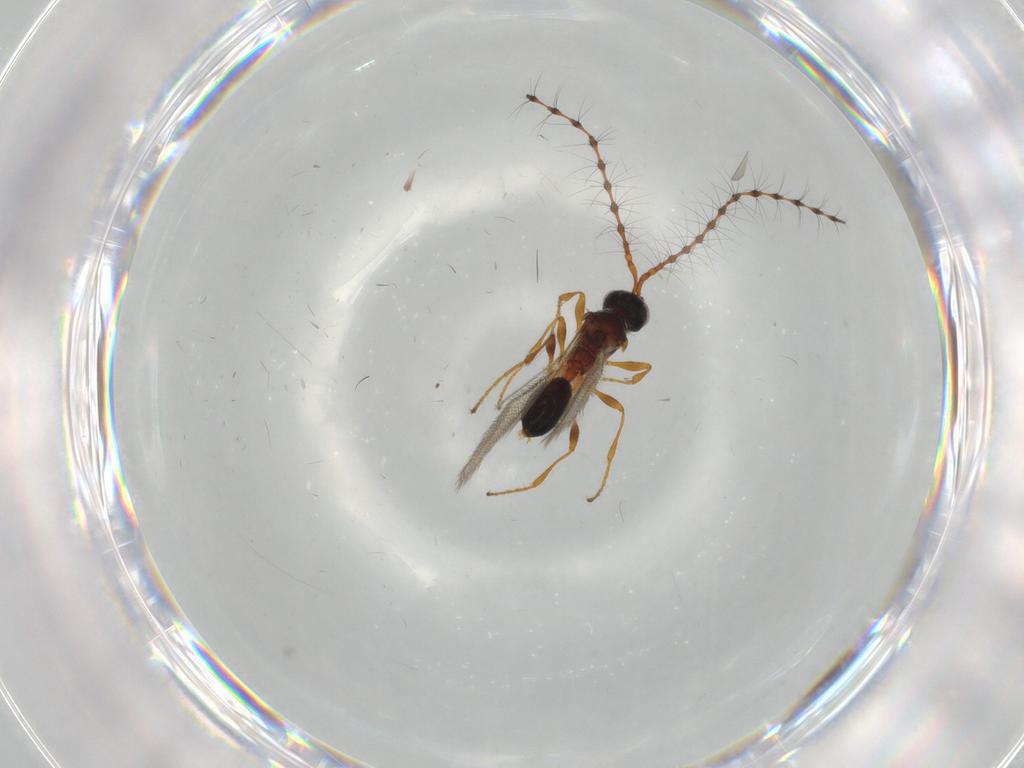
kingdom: Animalia
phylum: Arthropoda
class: Insecta
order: Hymenoptera
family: Diapriidae
